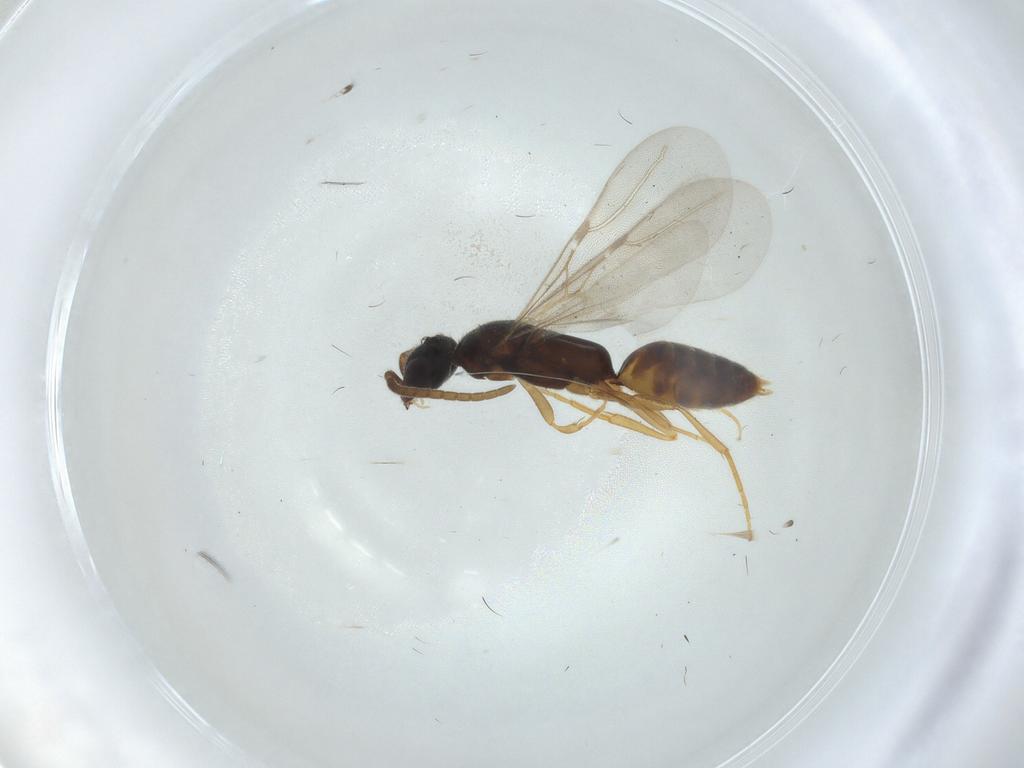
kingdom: Animalia
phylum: Arthropoda
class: Insecta
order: Hymenoptera
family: Bethylidae
